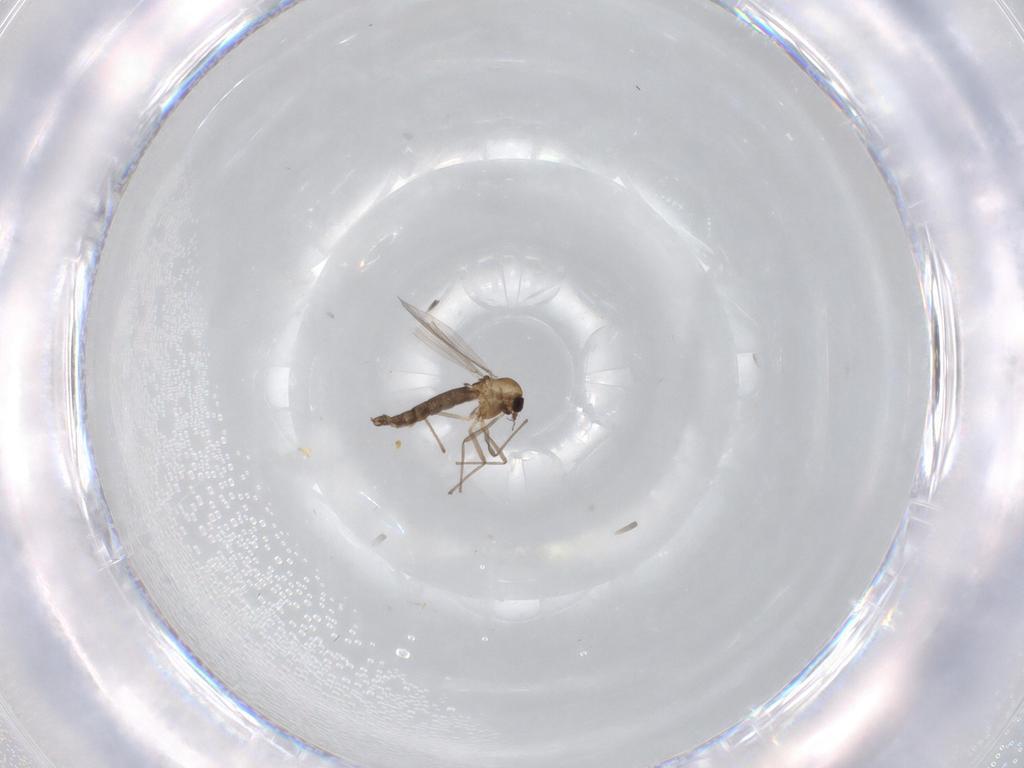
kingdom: Animalia
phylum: Arthropoda
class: Insecta
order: Diptera
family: Chironomidae
